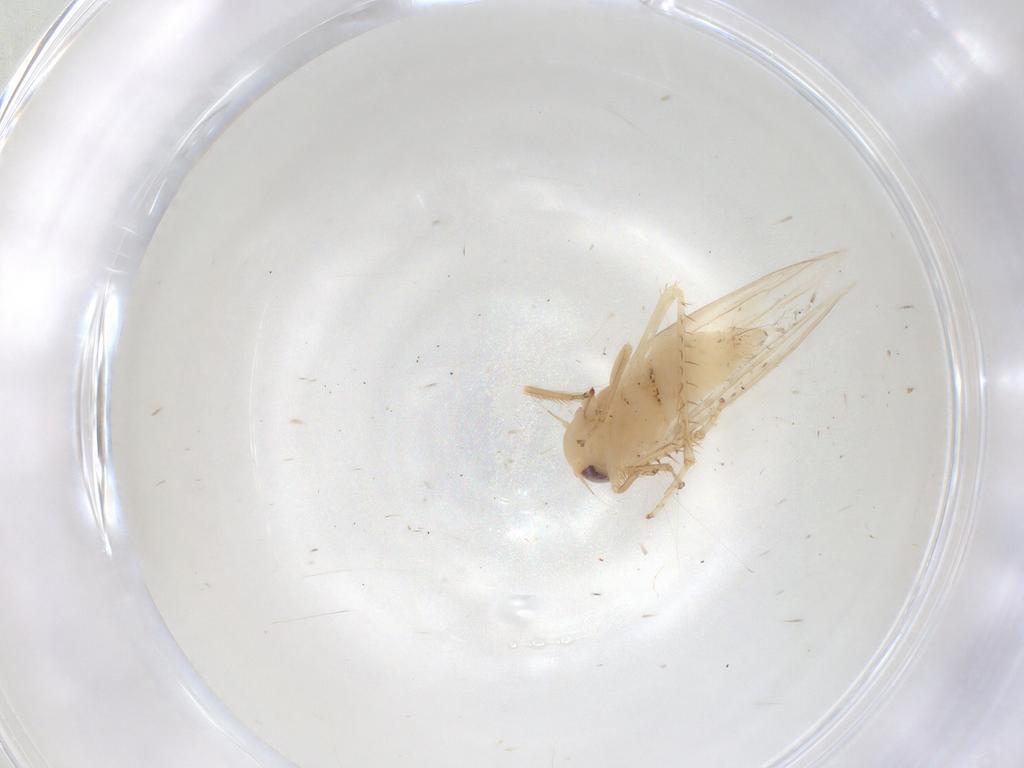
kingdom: Animalia
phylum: Arthropoda
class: Insecta
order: Hemiptera
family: Cicadellidae
